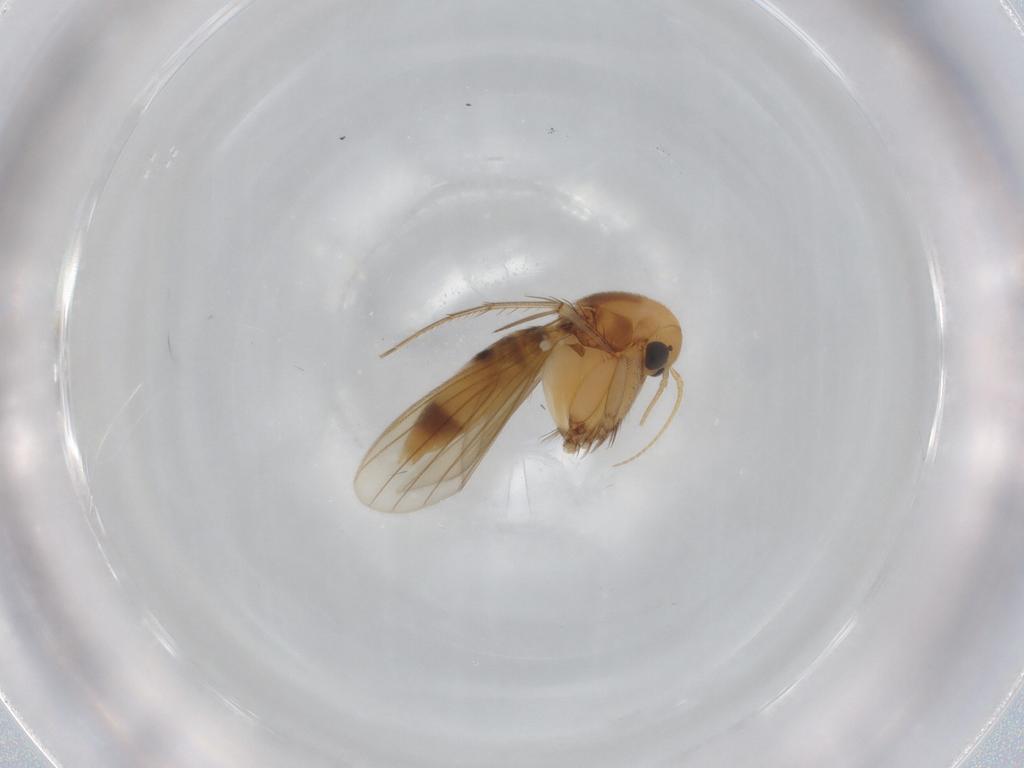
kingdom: Animalia
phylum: Arthropoda
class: Insecta
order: Diptera
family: Mycetophilidae
